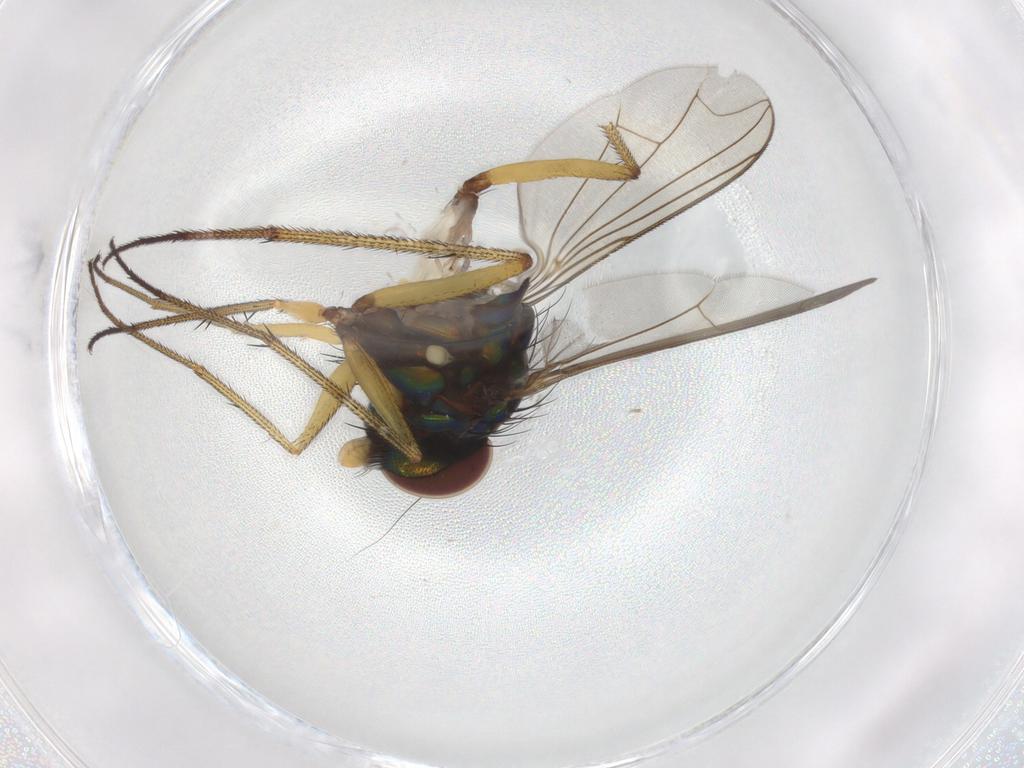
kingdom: Animalia
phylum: Arthropoda
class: Insecta
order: Diptera
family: Dolichopodidae
